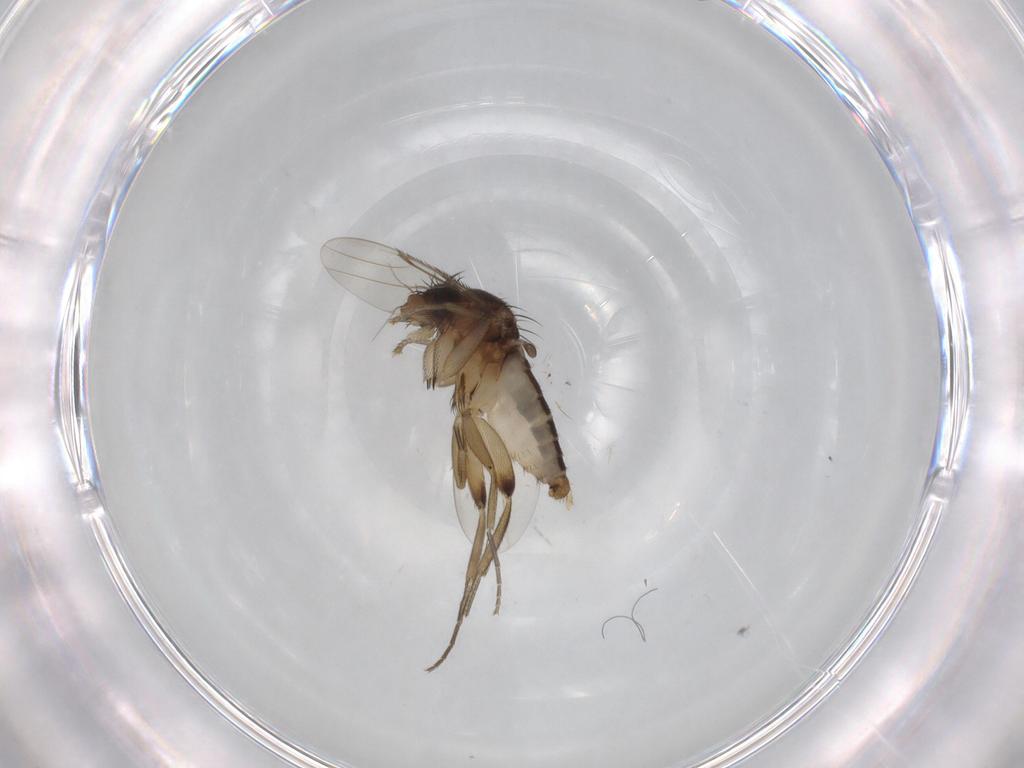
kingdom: Animalia
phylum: Arthropoda
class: Insecta
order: Diptera
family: Phoridae
